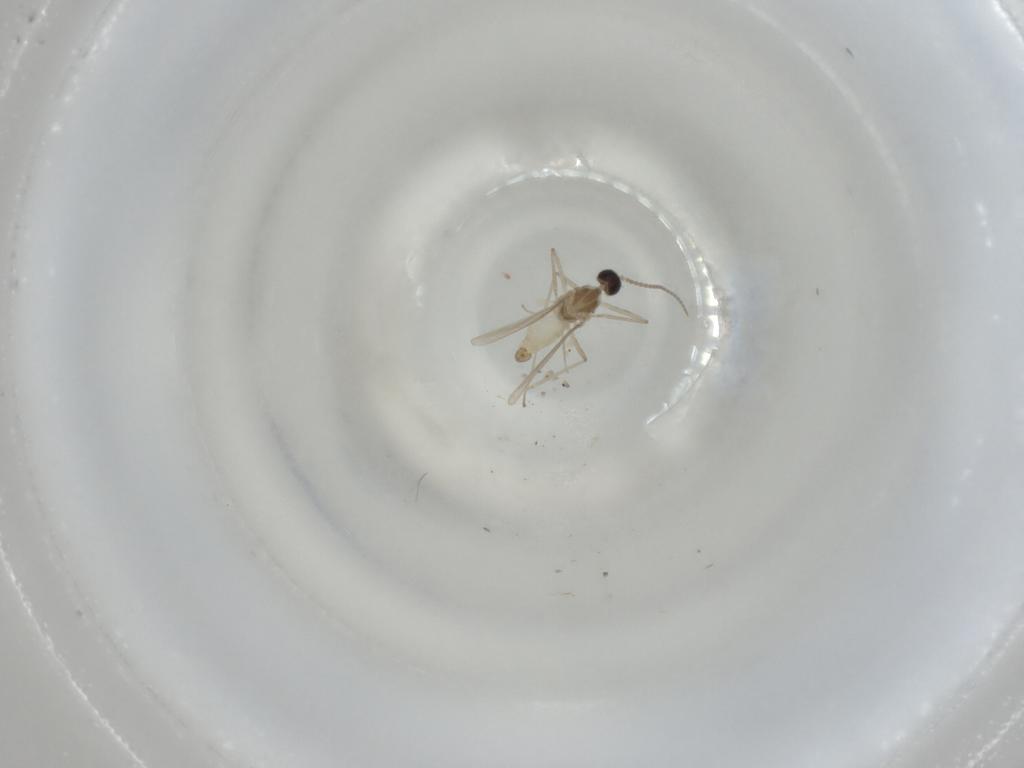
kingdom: Animalia
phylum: Arthropoda
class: Insecta
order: Diptera
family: Cecidomyiidae
